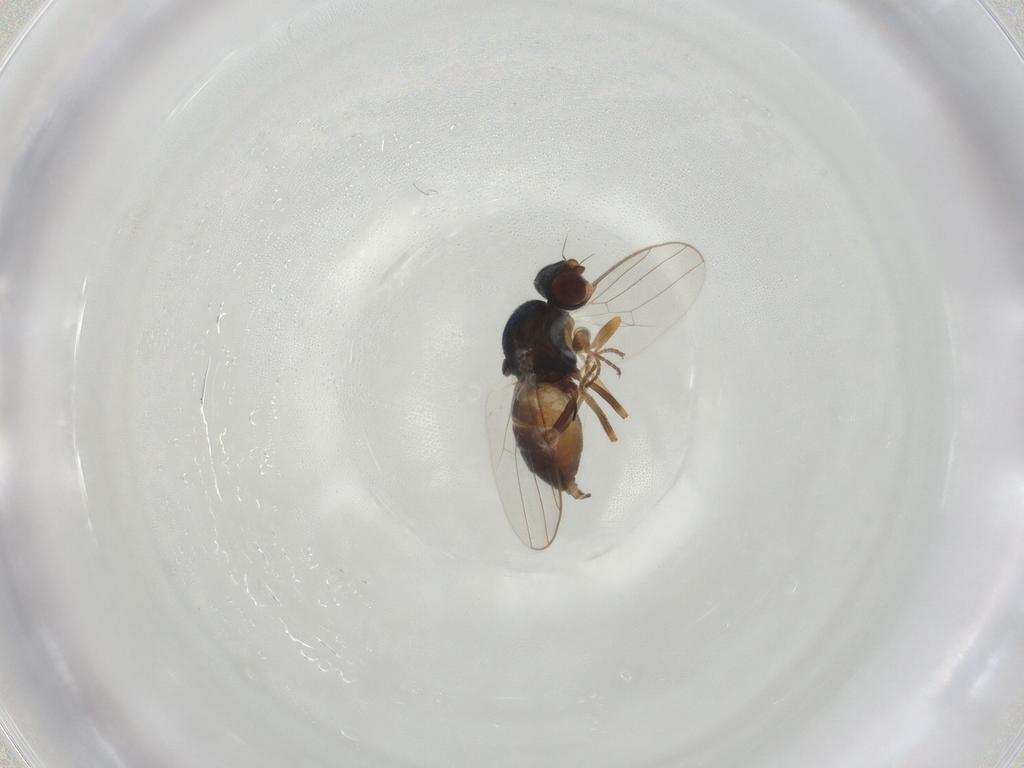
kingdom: Animalia
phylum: Arthropoda
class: Insecta
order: Diptera
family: Chloropidae
